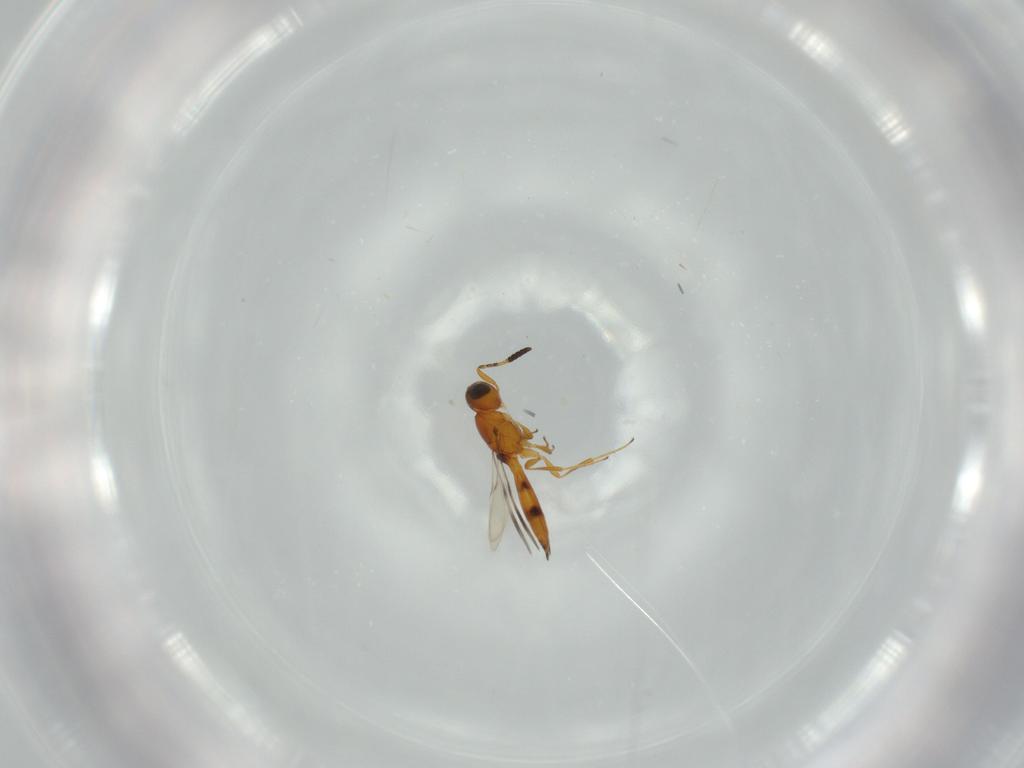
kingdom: Animalia
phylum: Arthropoda
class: Insecta
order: Hymenoptera
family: Scelionidae
